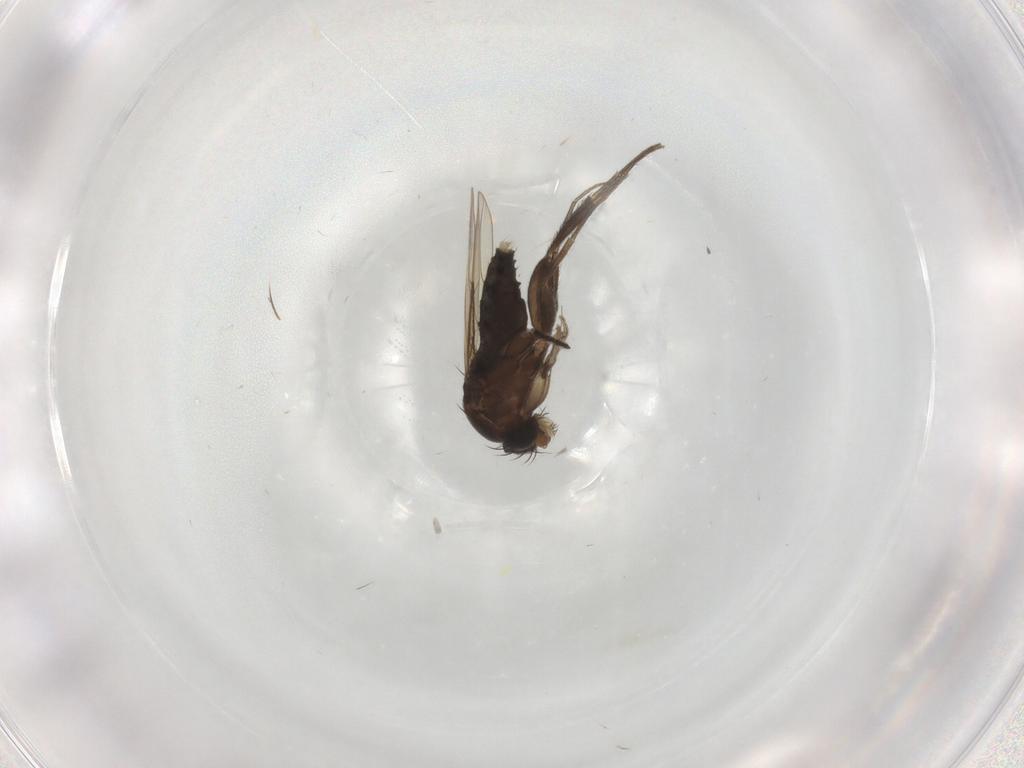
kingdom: Animalia
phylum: Arthropoda
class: Insecta
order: Diptera
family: Phoridae
